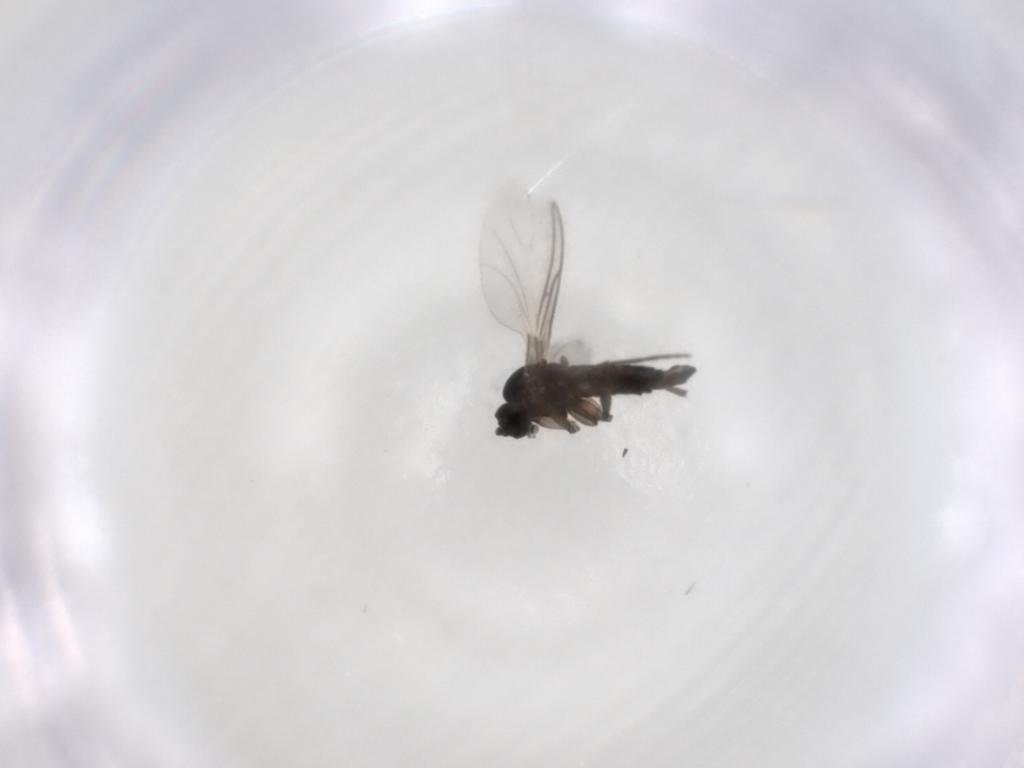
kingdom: Animalia
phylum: Arthropoda
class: Insecta
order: Diptera
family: Sciaridae
